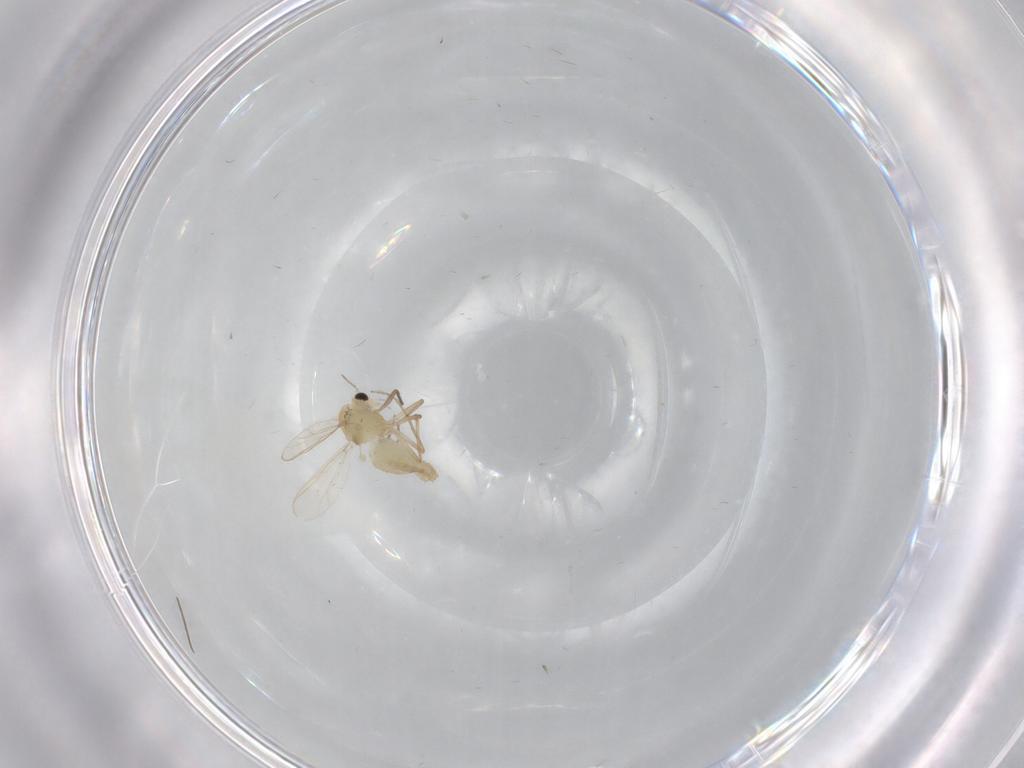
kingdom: Animalia
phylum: Arthropoda
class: Insecta
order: Diptera
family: Chironomidae
